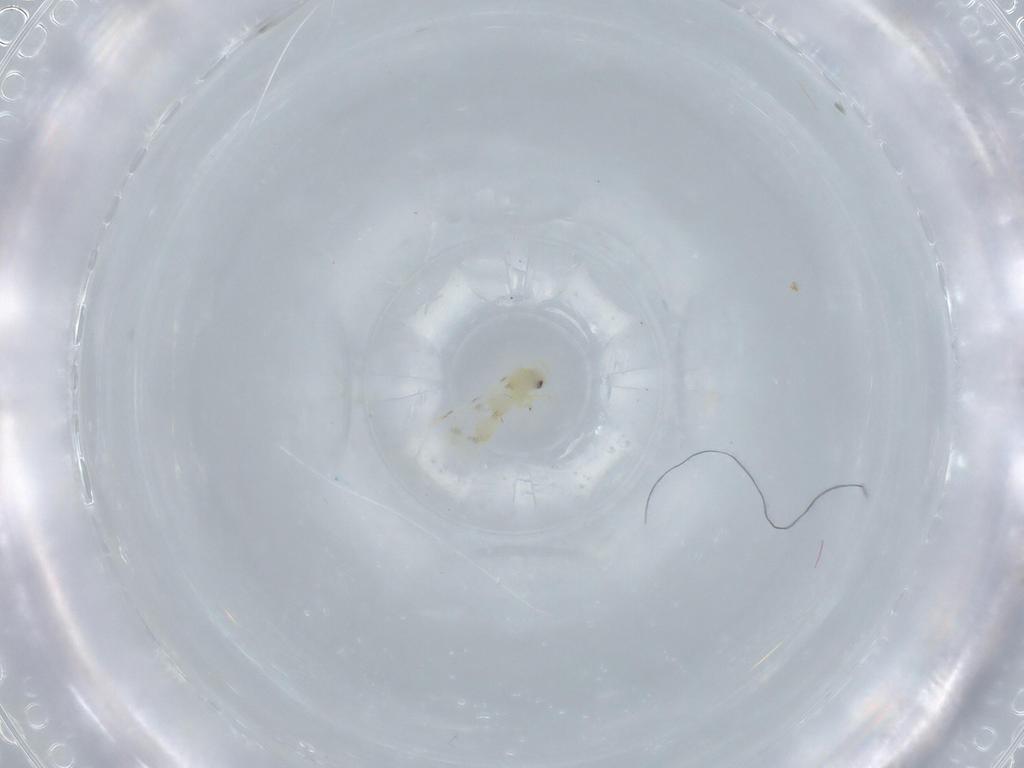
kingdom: Animalia
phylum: Arthropoda
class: Insecta
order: Hemiptera
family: Aleyrodidae
